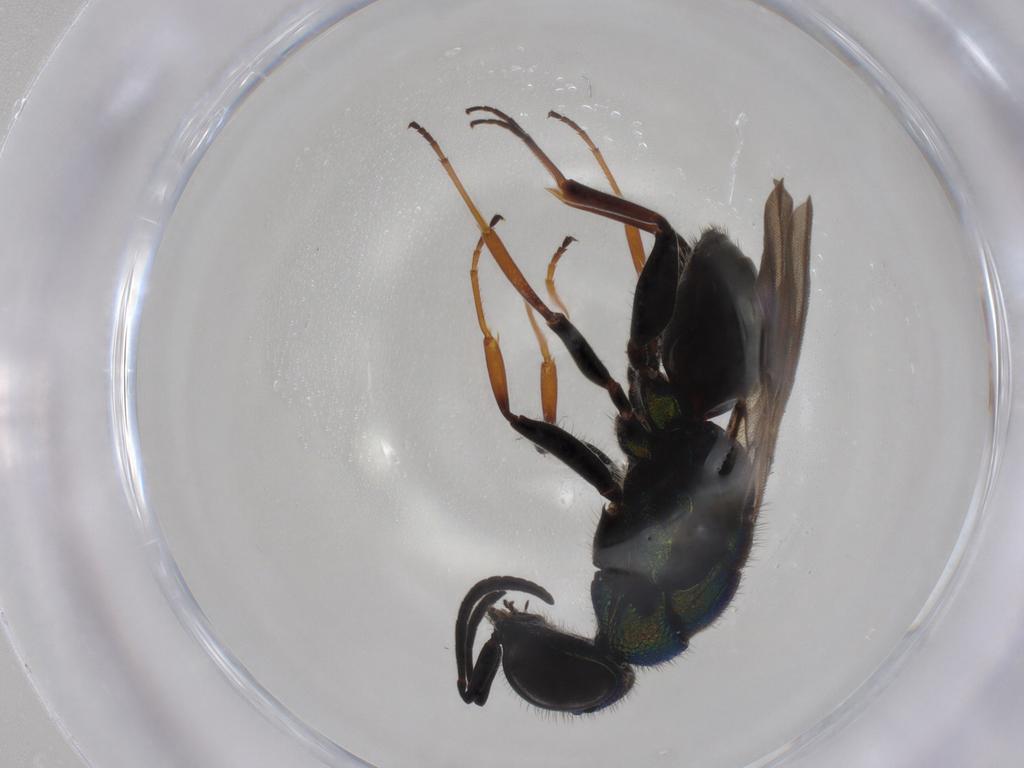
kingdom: Animalia
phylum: Arthropoda
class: Insecta
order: Hymenoptera
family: Chrysididae
